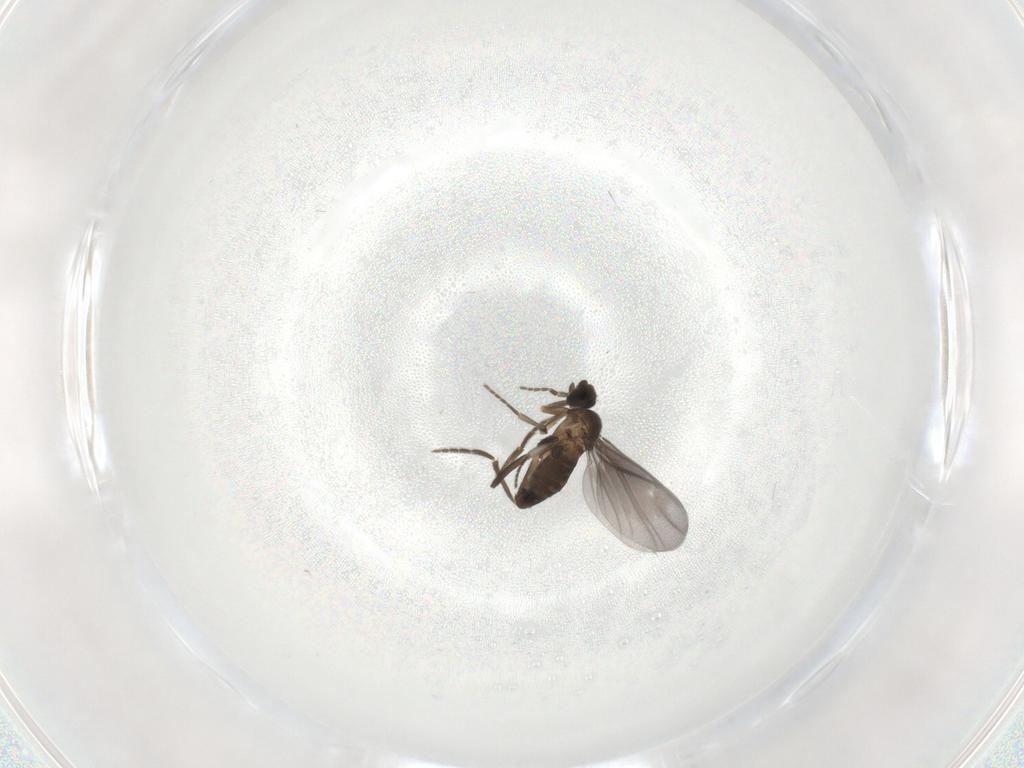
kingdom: Animalia
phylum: Arthropoda
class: Insecta
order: Diptera
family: Phoridae
